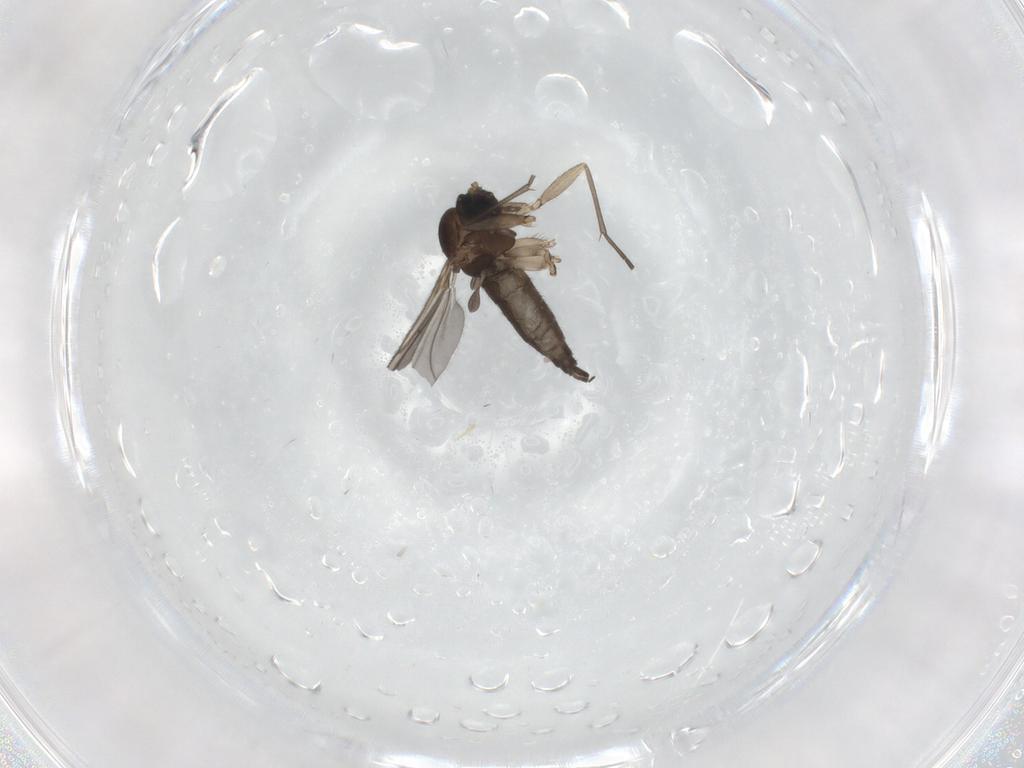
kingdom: Animalia
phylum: Arthropoda
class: Insecta
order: Diptera
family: Sciaridae
